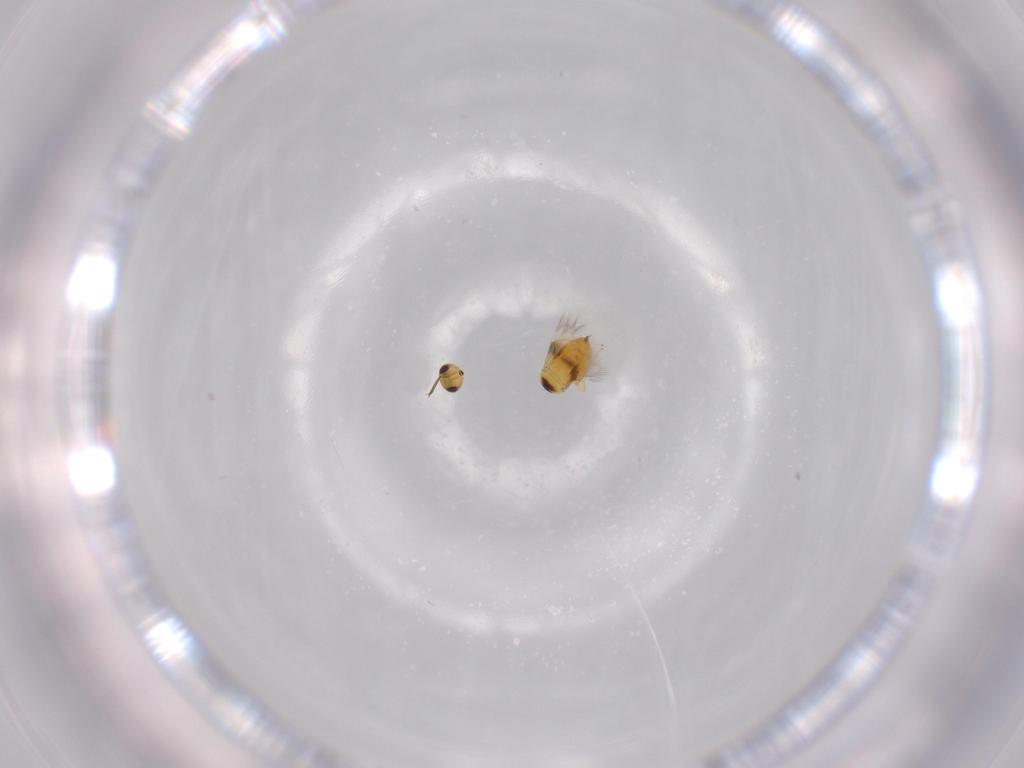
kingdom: Animalia
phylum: Arthropoda
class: Insecta
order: Hymenoptera
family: Signiphoridae
